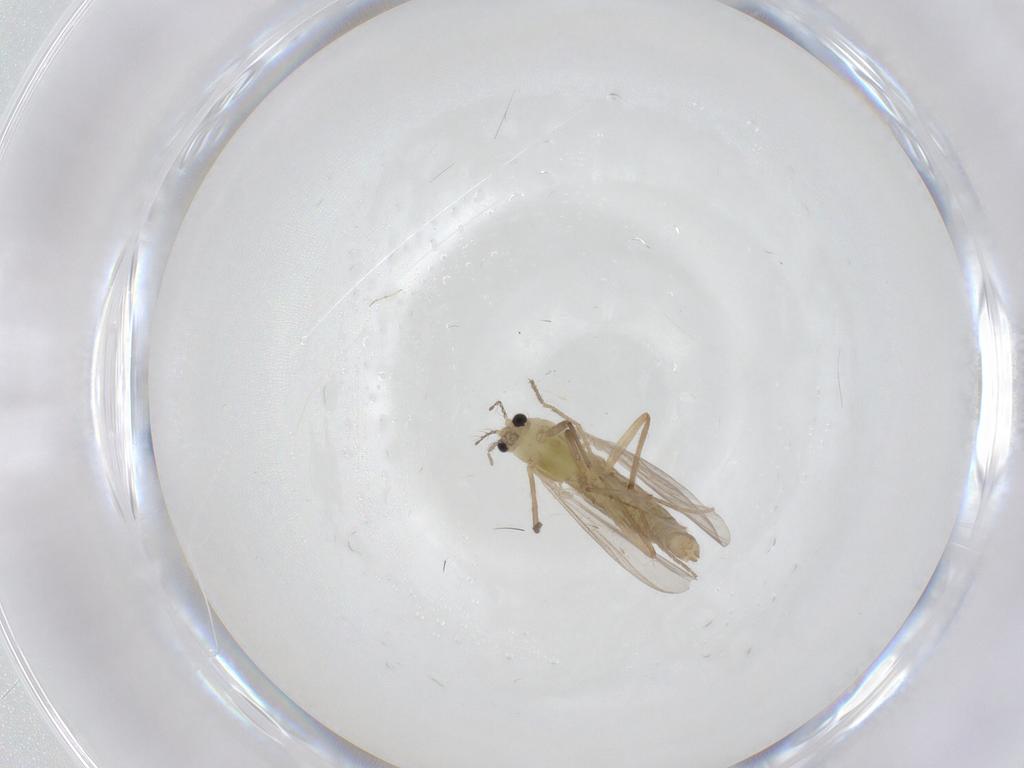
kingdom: Animalia
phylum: Arthropoda
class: Insecta
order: Diptera
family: Chironomidae
